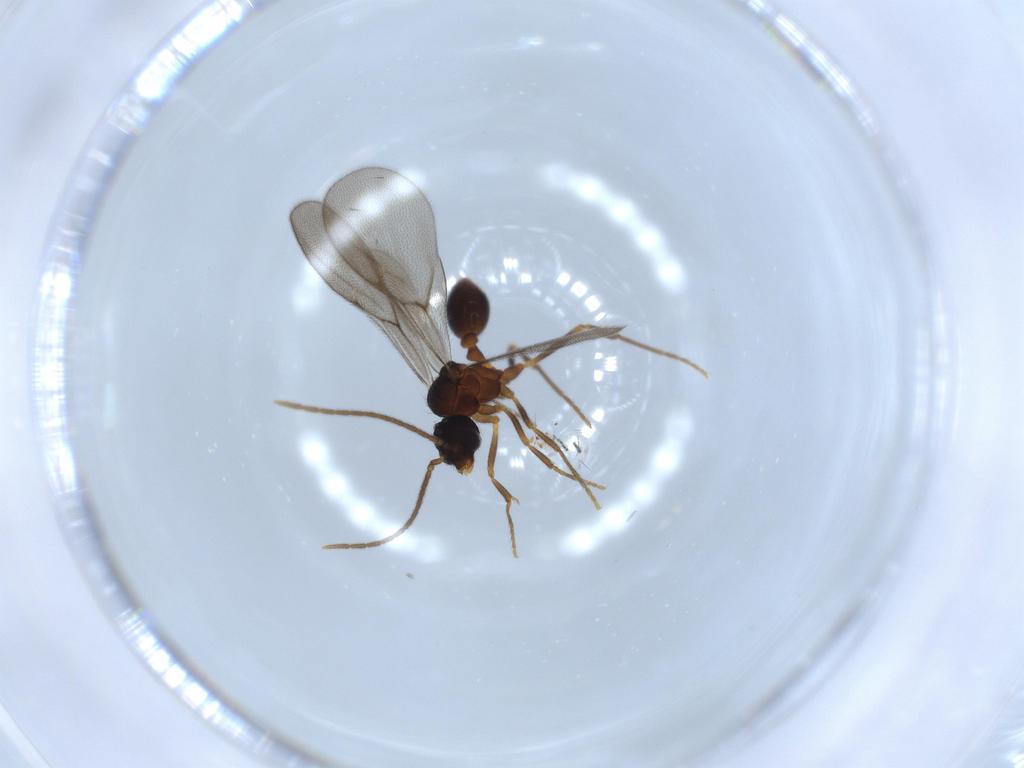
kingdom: Animalia
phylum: Arthropoda
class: Insecta
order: Hymenoptera
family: Formicidae
